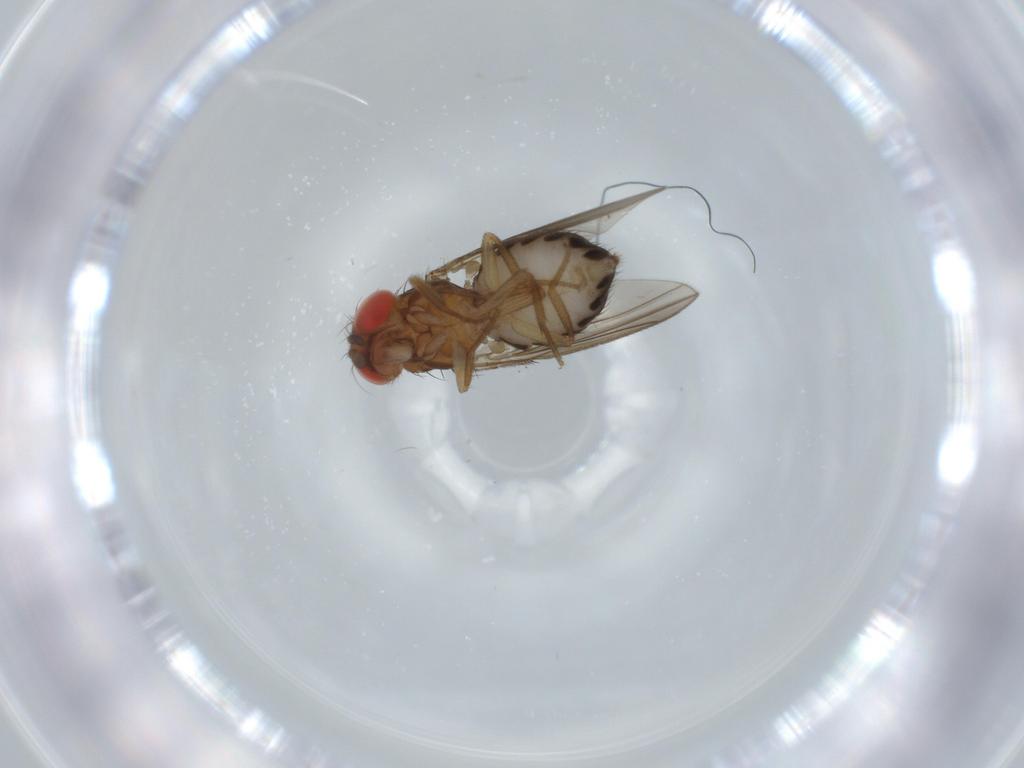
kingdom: Animalia
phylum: Arthropoda
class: Insecta
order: Diptera
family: Drosophilidae
